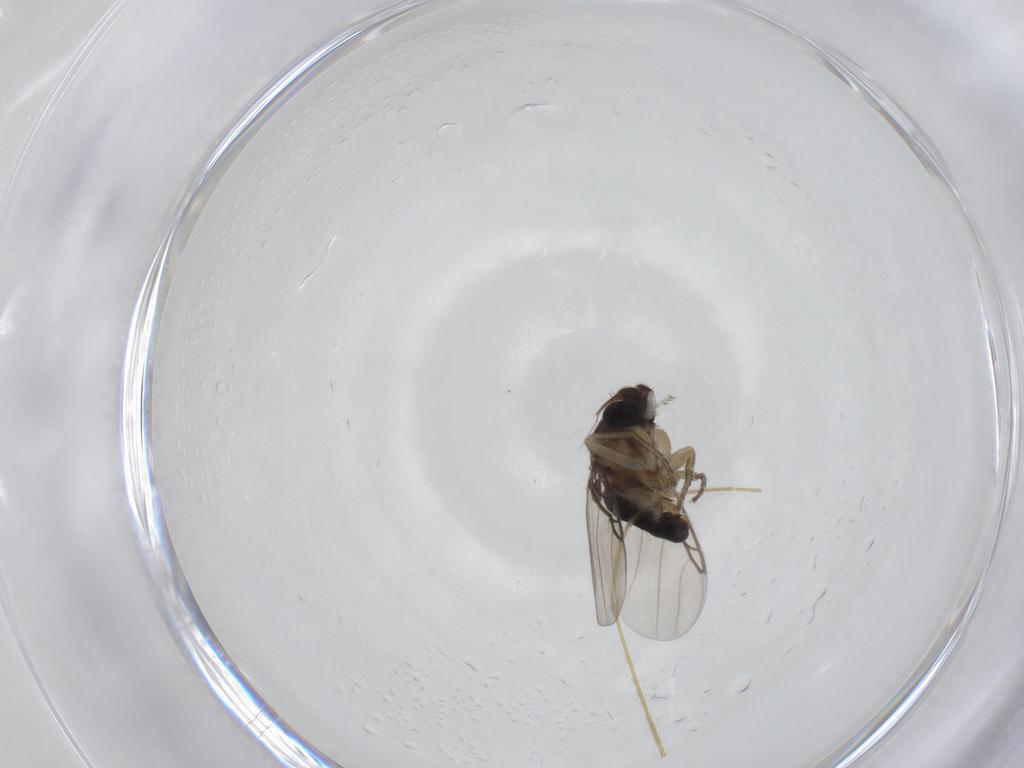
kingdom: Animalia
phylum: Arthropoda
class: Insecta
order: Diptera
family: Phoridae
